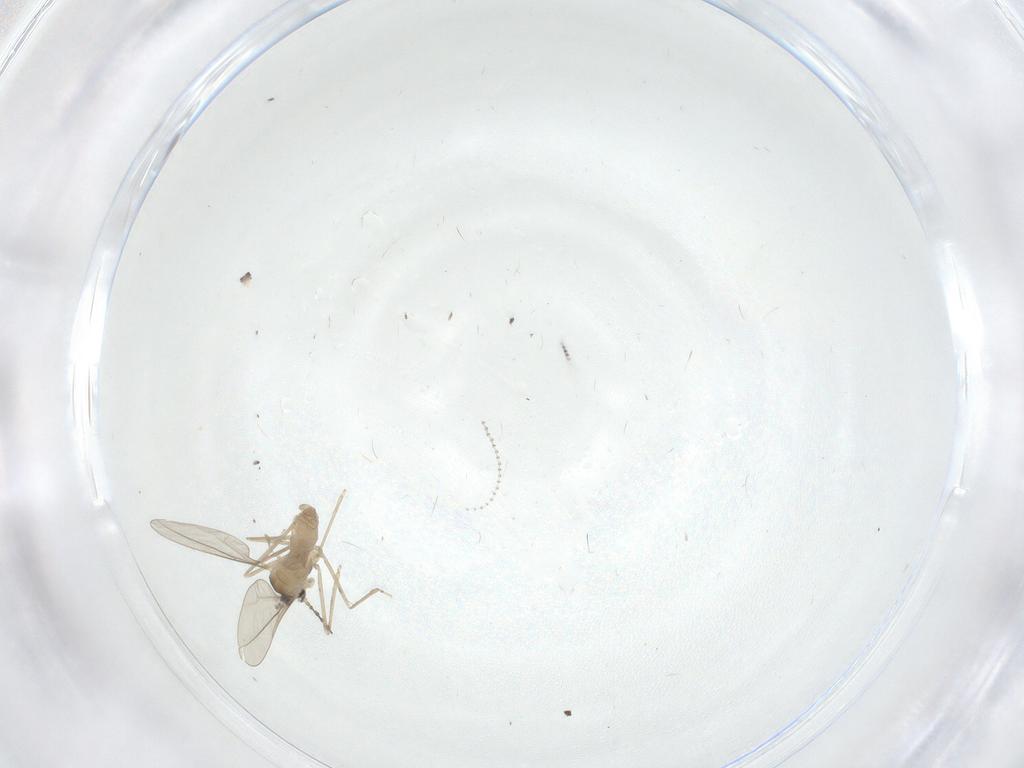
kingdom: Animalia
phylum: Arthropoda
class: Insecta
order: Diptera
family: Cecidomyiidae
